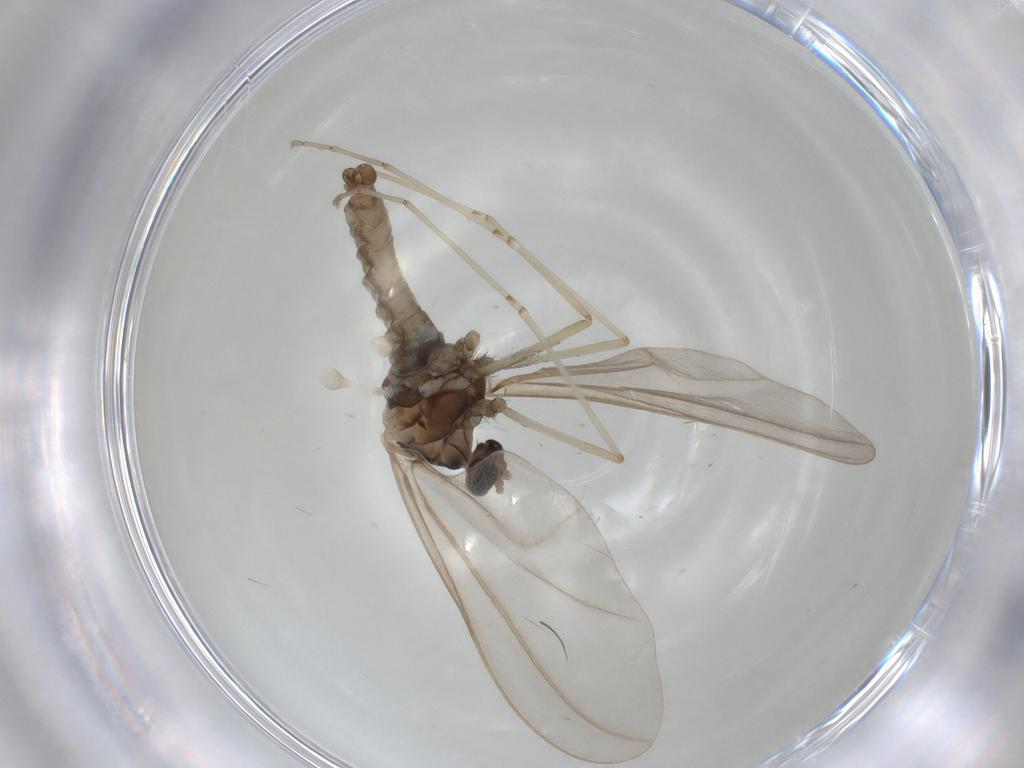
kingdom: Animalia
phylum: Arthropoda
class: Insecta
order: Diptera
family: Cecidomyiidae
